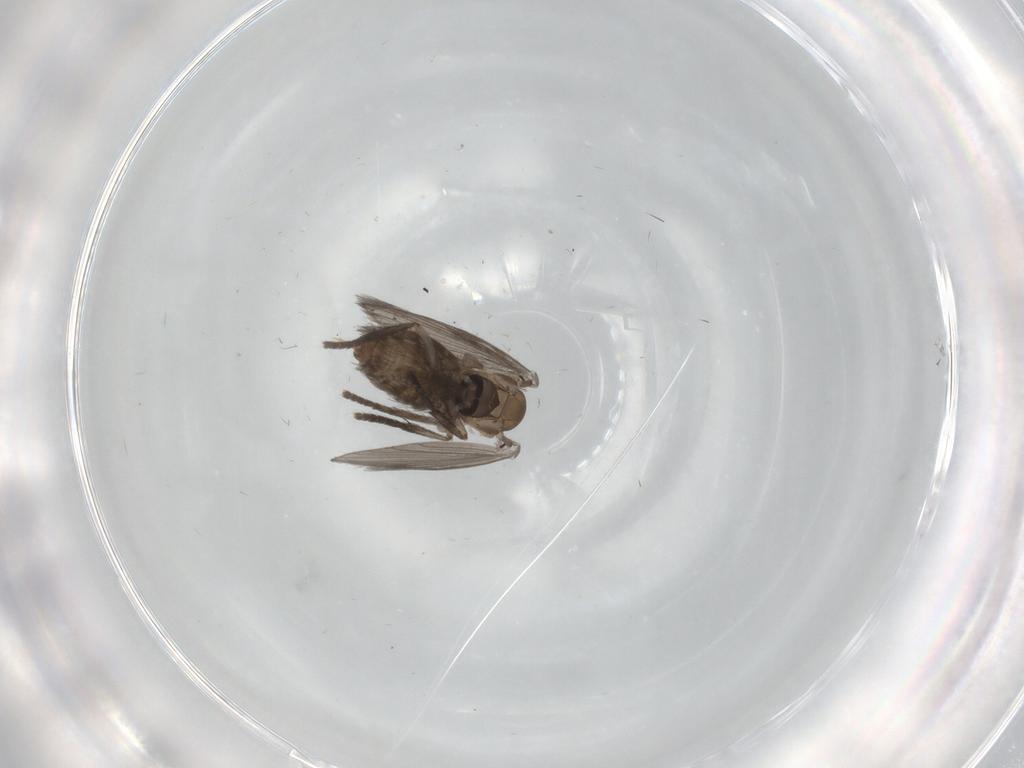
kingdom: Animalia
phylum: Arthropoda
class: Insecta
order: Diptera
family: Psychodidae
